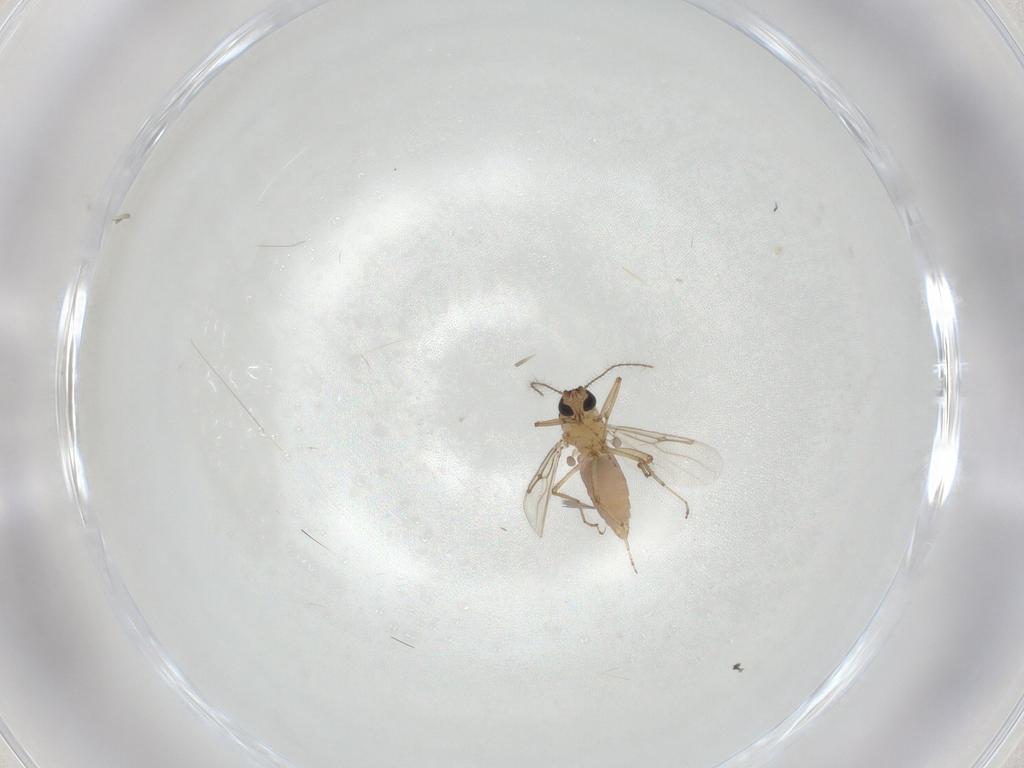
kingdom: Animalia
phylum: Arthropoda
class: Insecta
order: Diptera
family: Ceratopogonidae
